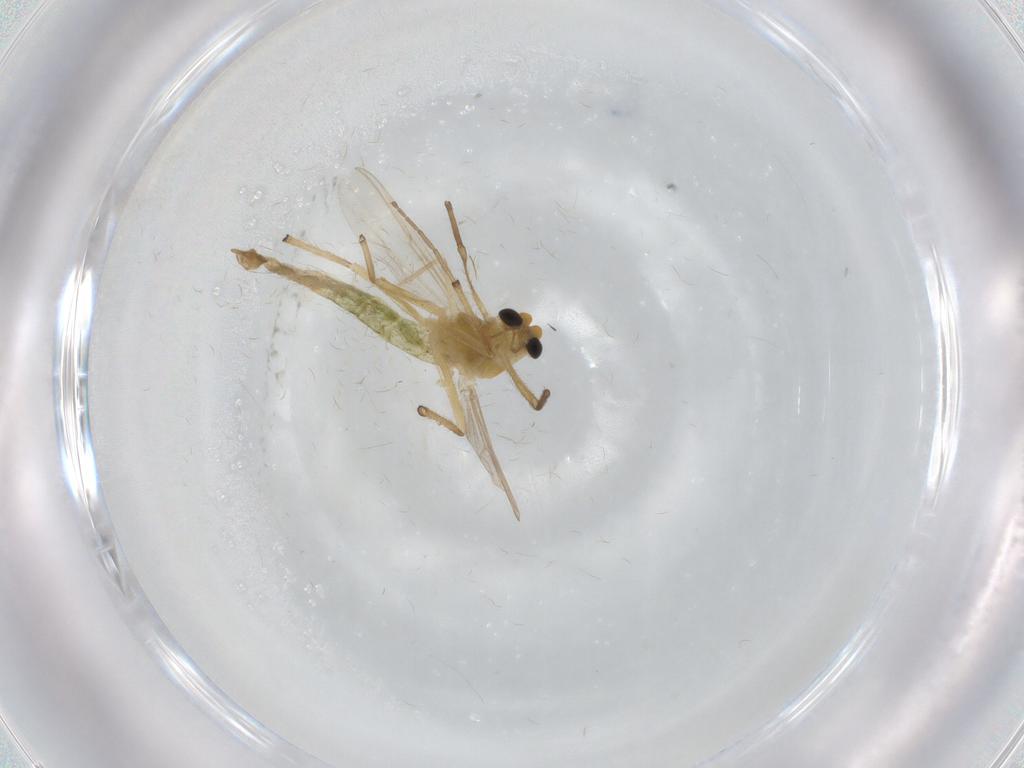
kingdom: Animalia
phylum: Arthropoda
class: Insecta
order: Diptera
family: Chironomidae
